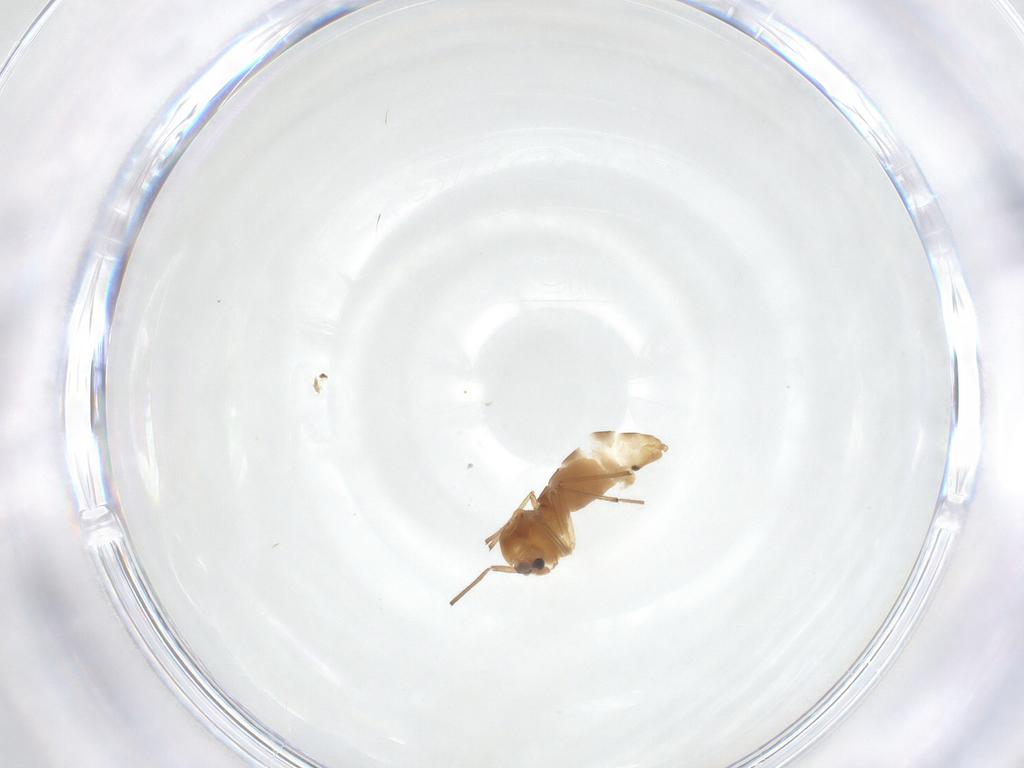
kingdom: Animalia
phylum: Arthropoda
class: Insecta
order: Diptera
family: Chironomidae
